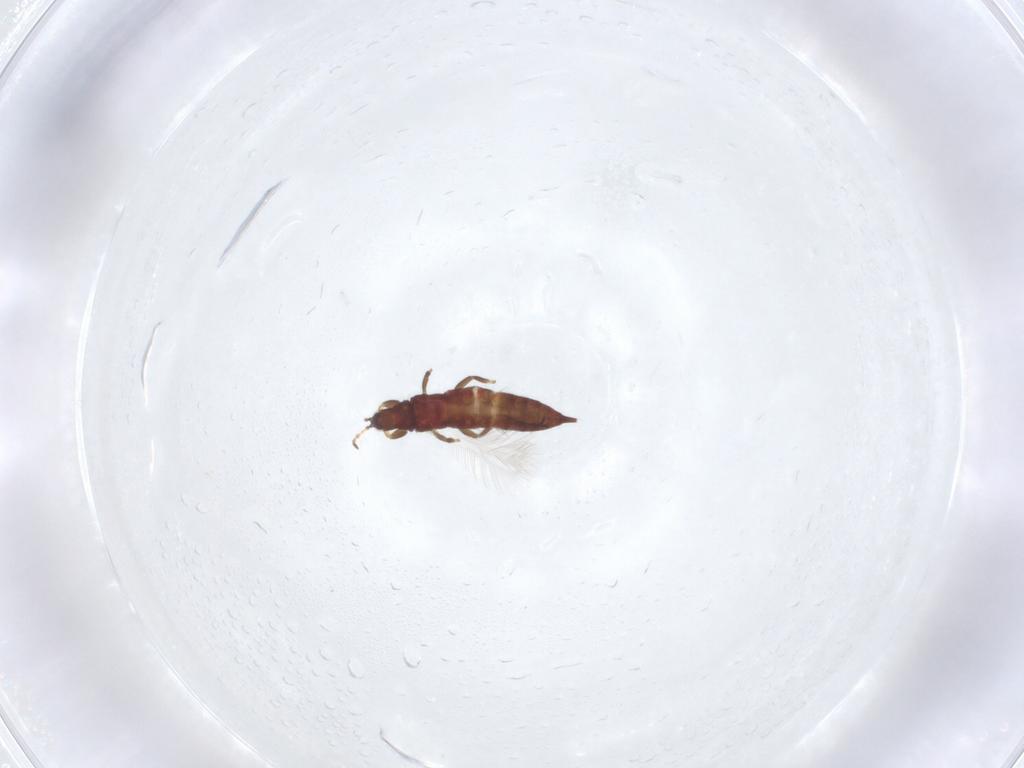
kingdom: Animalia
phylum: Arthropoda
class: Insecta
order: Thysanoptera
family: Phlaeothripidae
